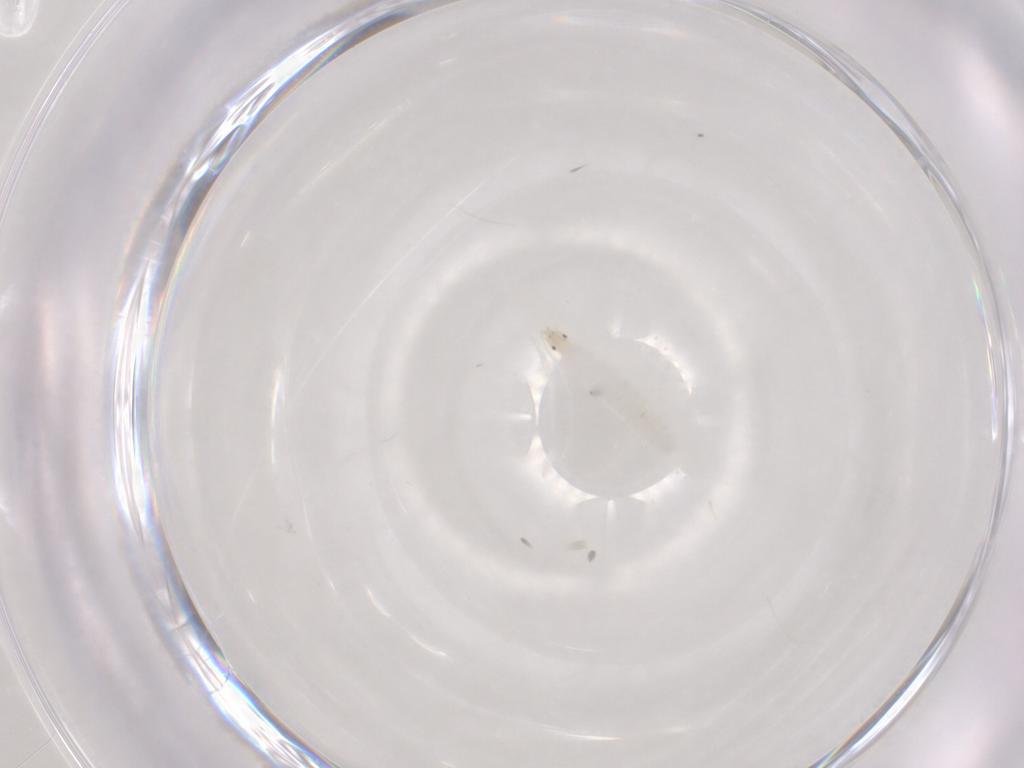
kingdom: Animalia
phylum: Arthropoda
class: Insecta
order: Diptera
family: Stratiomyidae
